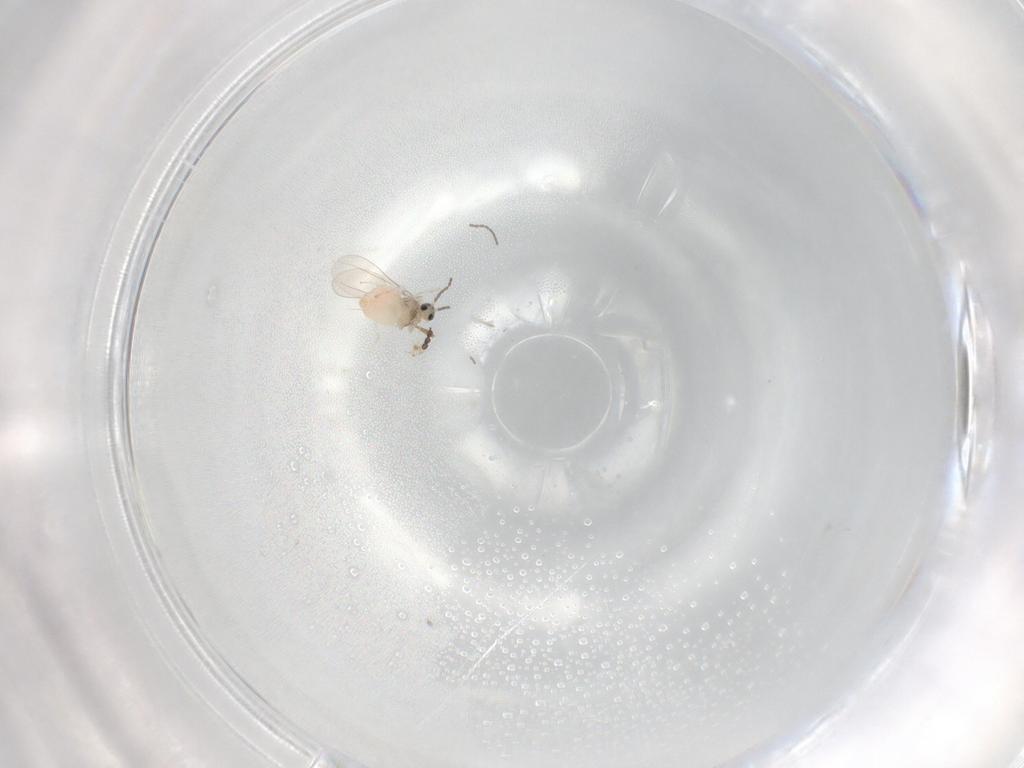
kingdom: Animalia
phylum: Arthropoda
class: Insecta
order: Diptera
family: Cecidomyiidae
